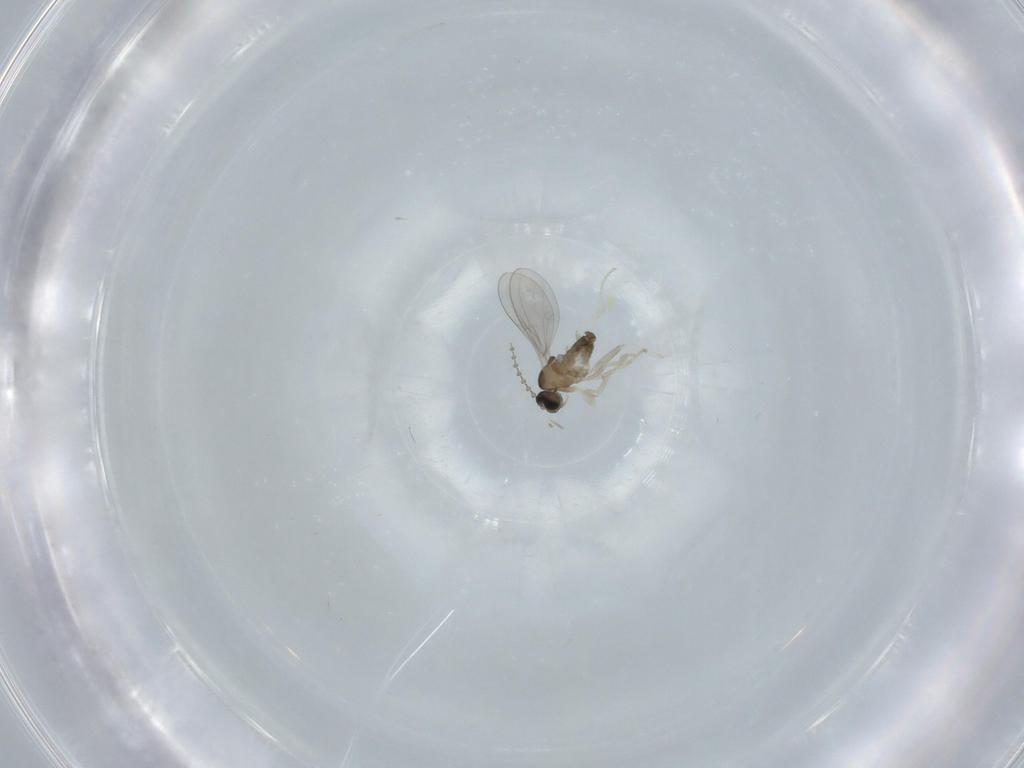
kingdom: Animalia
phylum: Arthropoda
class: Insecta
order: Diptera
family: Cecidomyiidae
